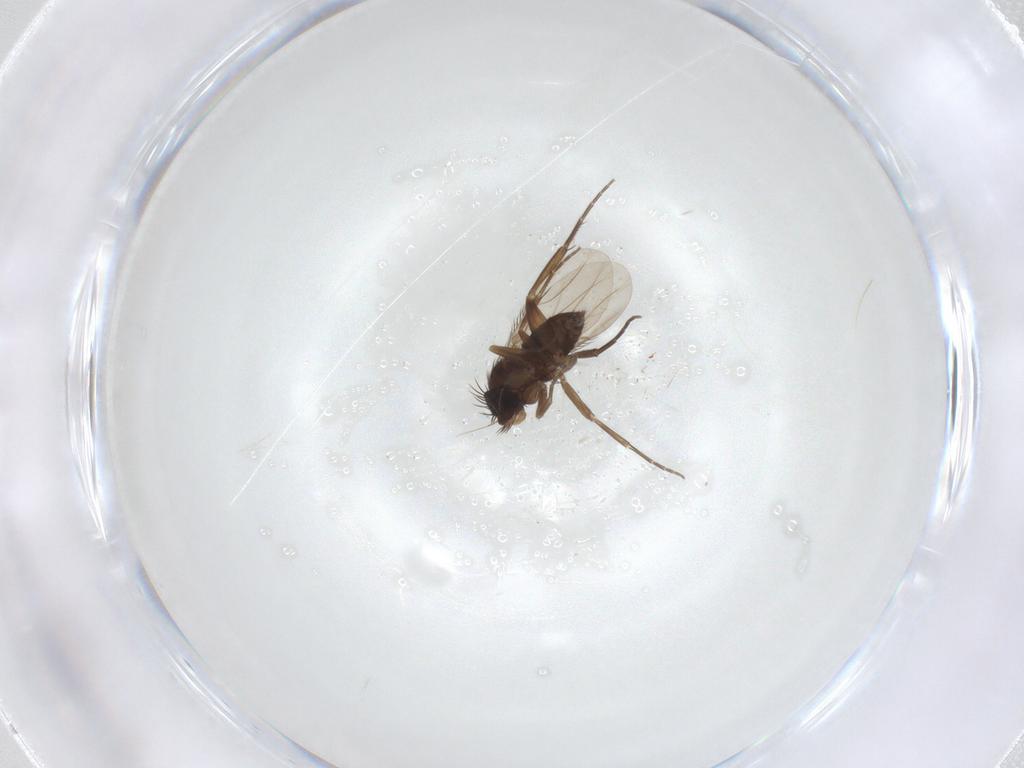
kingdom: Animalia
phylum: Arthropoda
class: Insecta
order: Diptera
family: Phoridae
